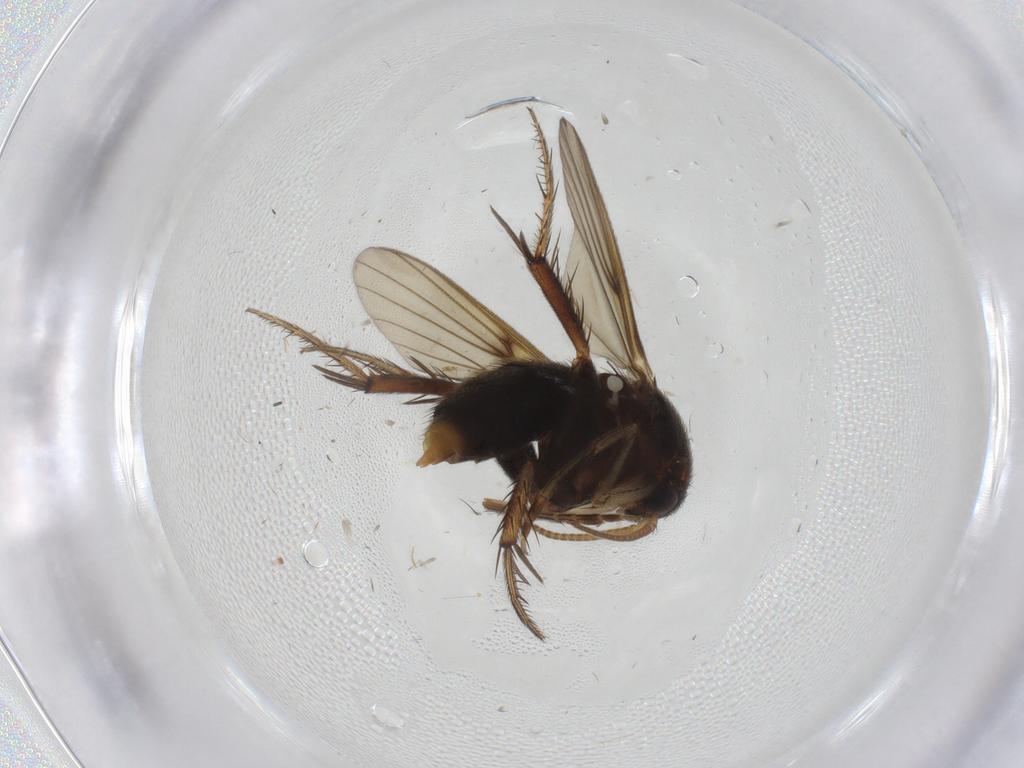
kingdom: Animalia
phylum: Arthropoda
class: Insecta
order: Diptera
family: Mycetophilidae
